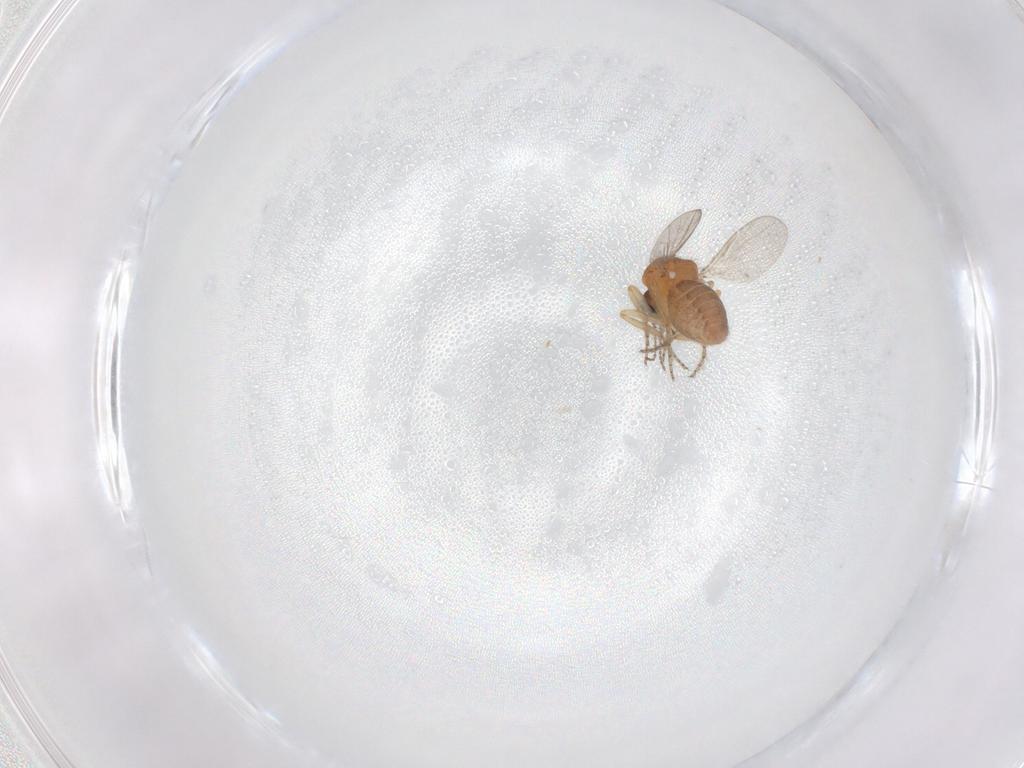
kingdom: Animalia
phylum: Arthropoda
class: Insecta
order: Diptera
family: Ceratopogonidae
